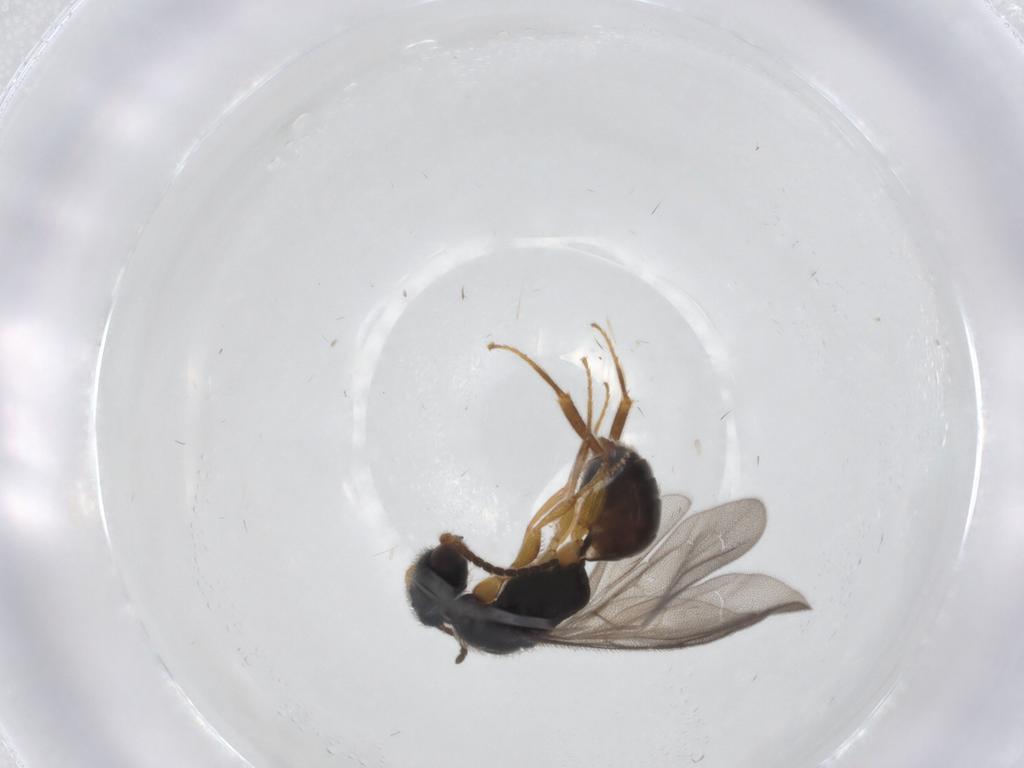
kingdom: Animalia
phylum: Arthropoda
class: Insecta
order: Hymenoptera
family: Bethylidae
